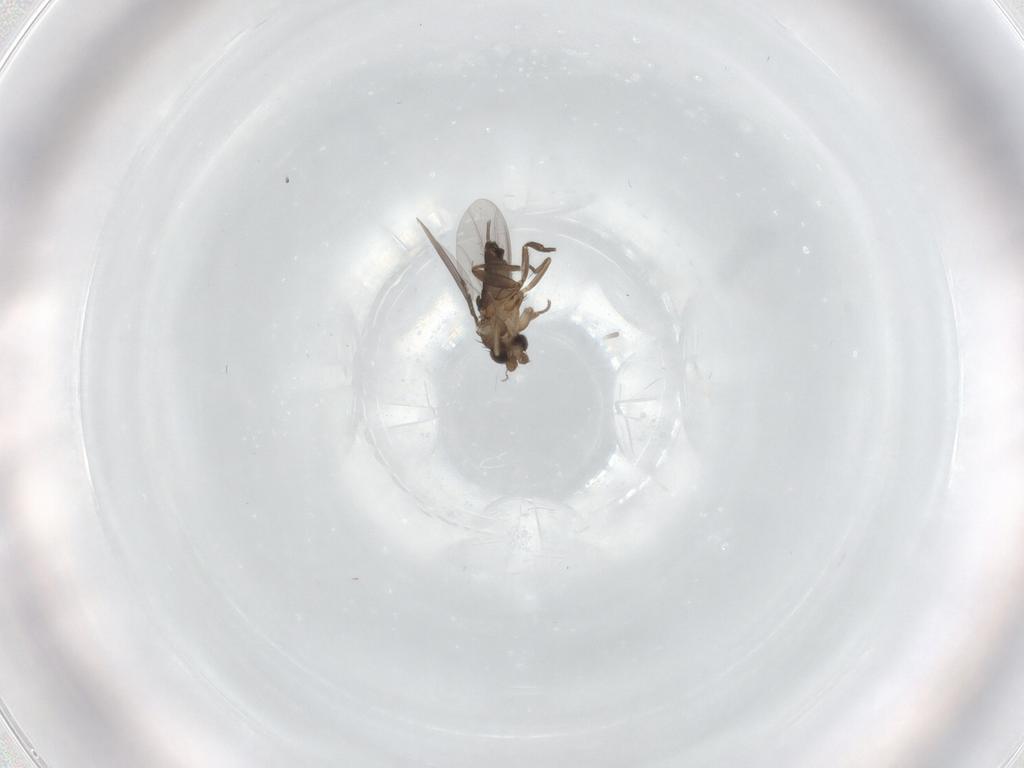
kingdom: Animalia
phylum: Arthropoda
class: Insecta
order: Diptera
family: Phoridae
